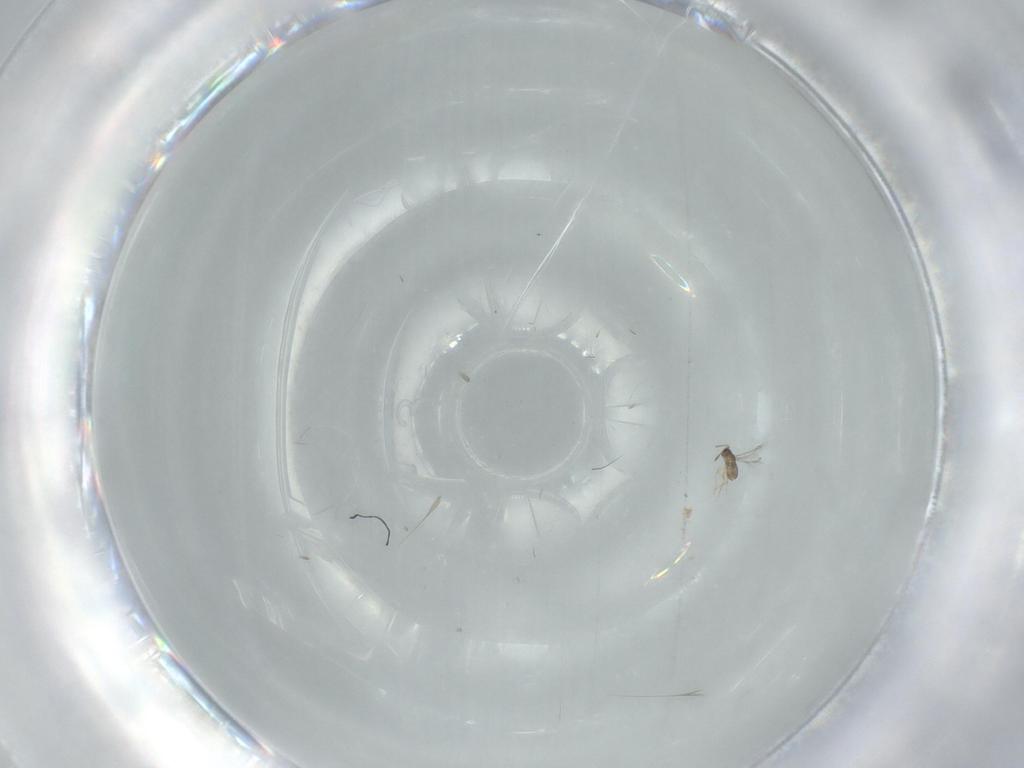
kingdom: Animalia
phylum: Arthropoda
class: Insecta
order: Hymenoptera
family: Mymaridae
